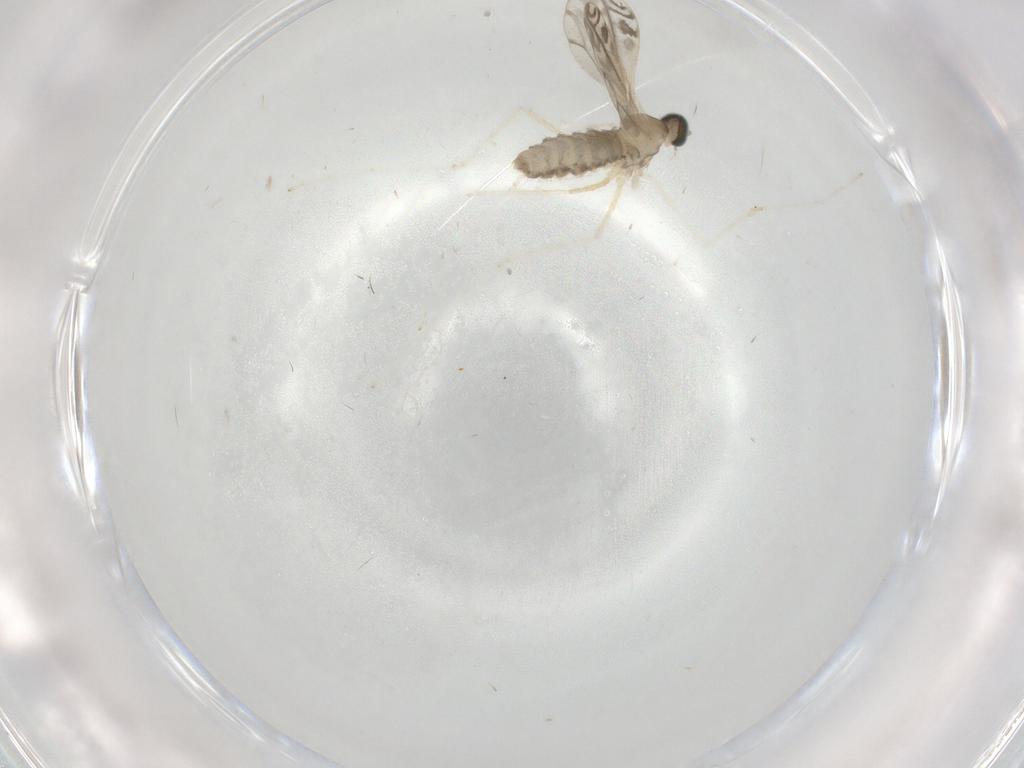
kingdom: Animalia
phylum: Arthropoda
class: Insecta
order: Diptera
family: Cecidomyiidae
